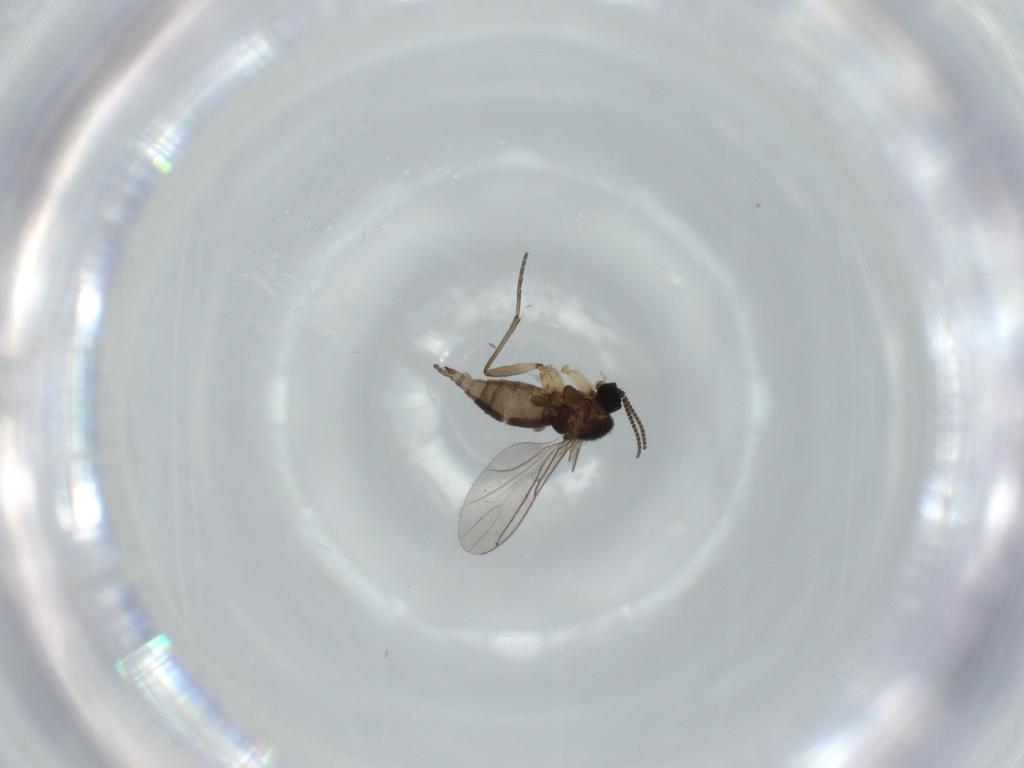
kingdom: Animalia
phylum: Arthropoda
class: Insecta
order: Diptera
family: Sciaridae
